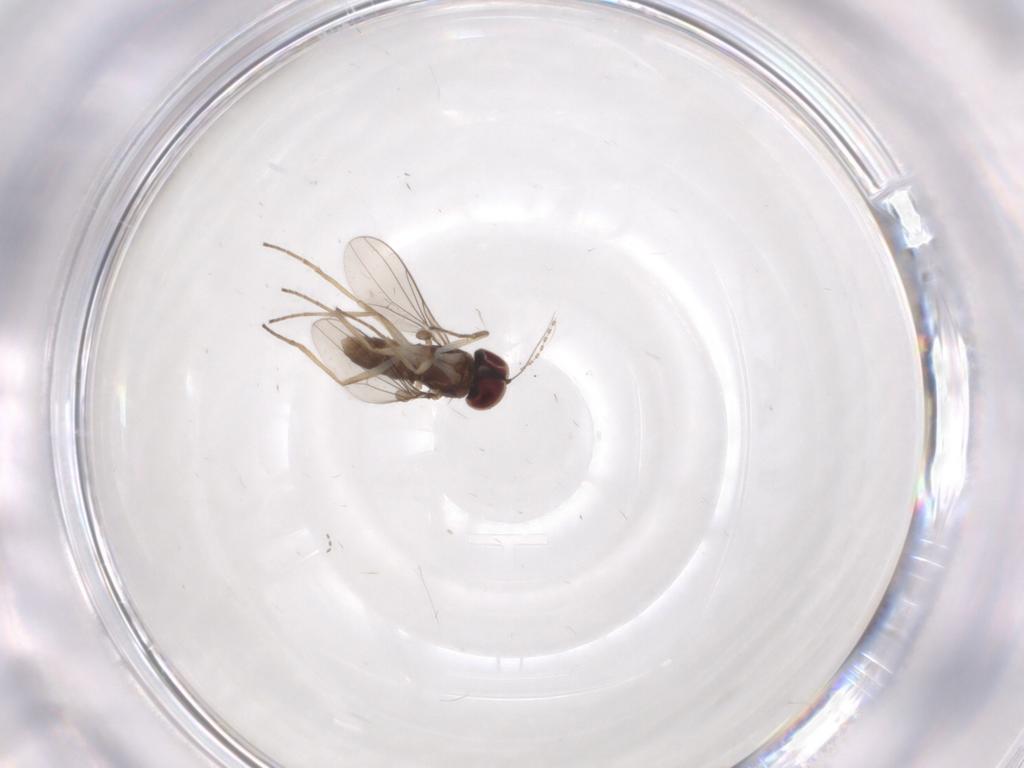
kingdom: Animalia
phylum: Arthropoda
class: Insecta
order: Diptera
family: Dolichopodidae
